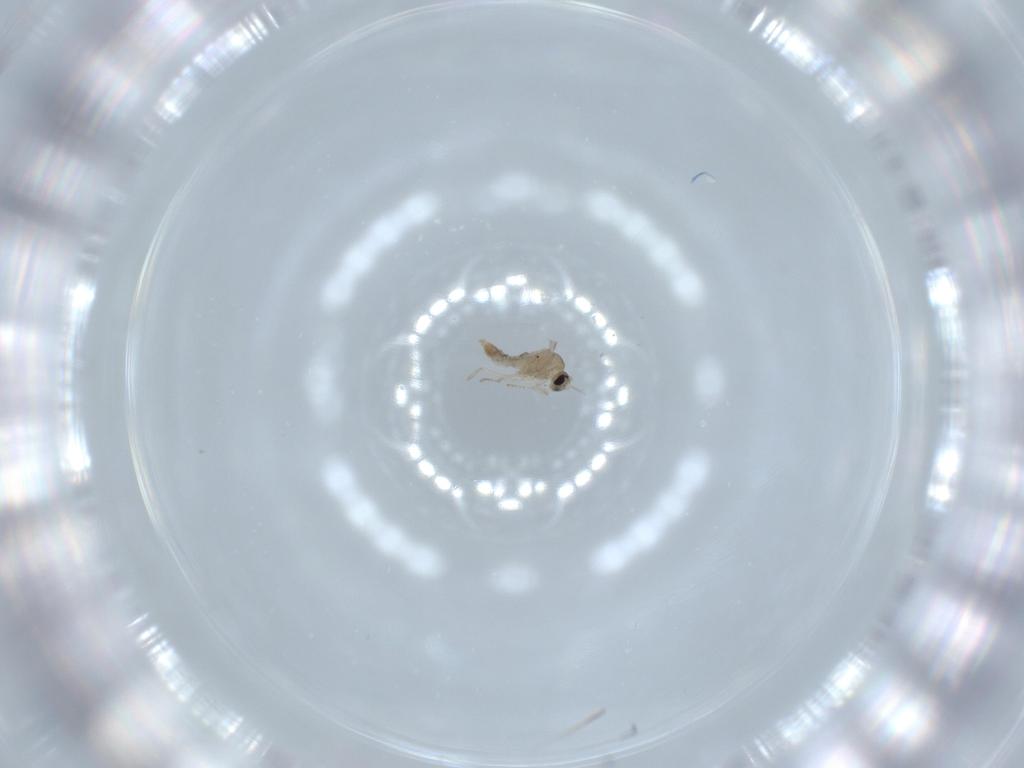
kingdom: Animalia
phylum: Arthropoda
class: Insecta
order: Diptera
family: Cecidomyiidae
